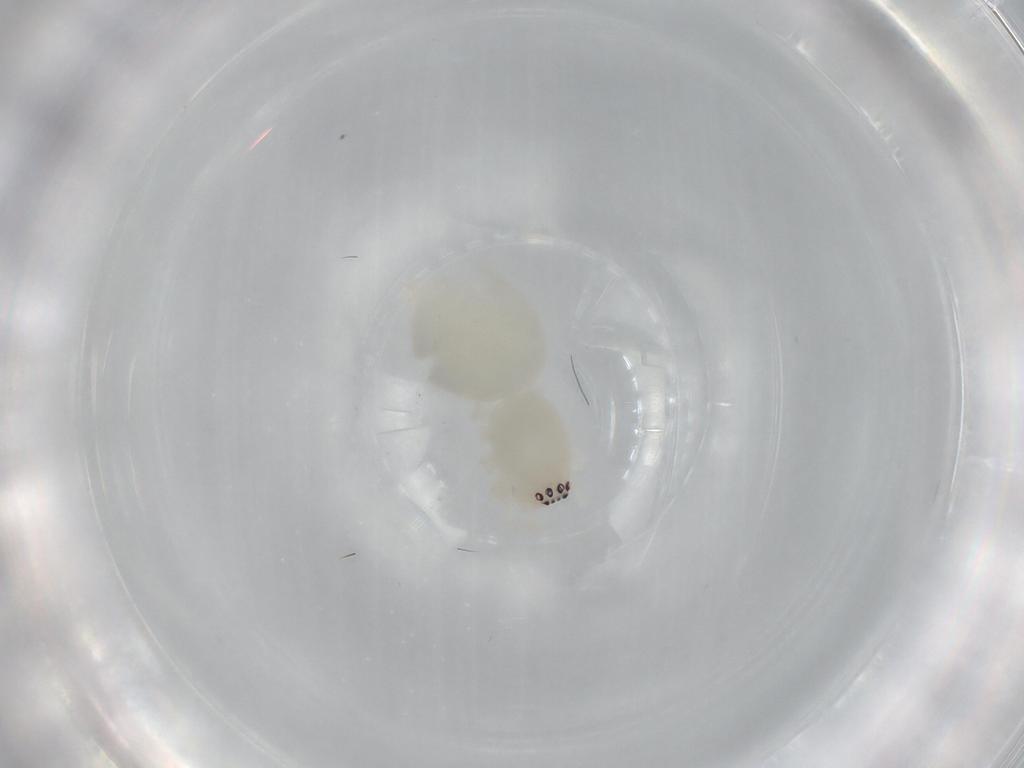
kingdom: Animalia
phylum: Arthropoda
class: Arachnida
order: Araneae
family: Anyphaenidae
